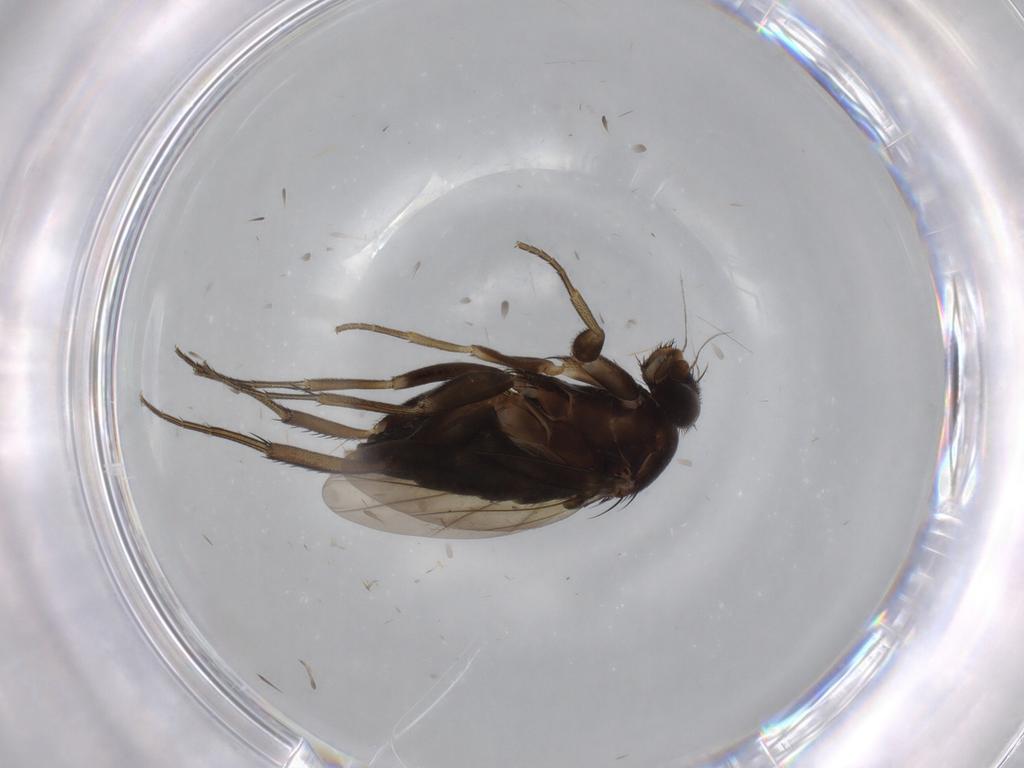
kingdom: Animalia
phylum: Arthropoda
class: Insecta
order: Diptera
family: Phoridae
